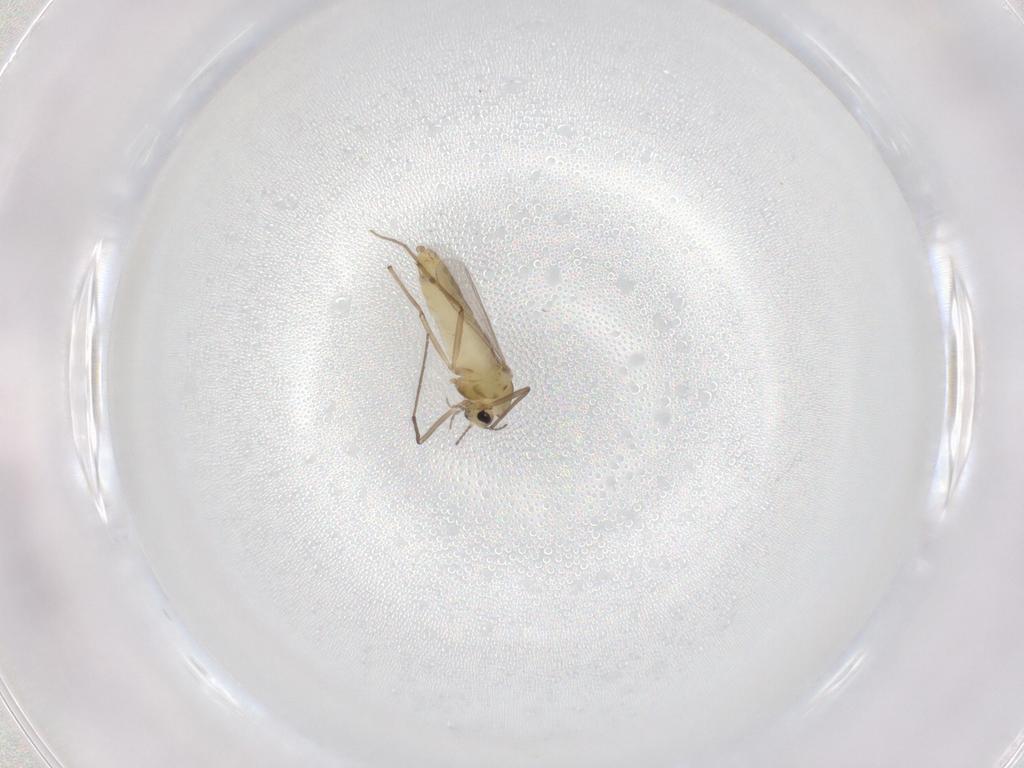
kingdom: Animalia
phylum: Arthropoda
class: Insecta
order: Diptera
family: Chironomidae
